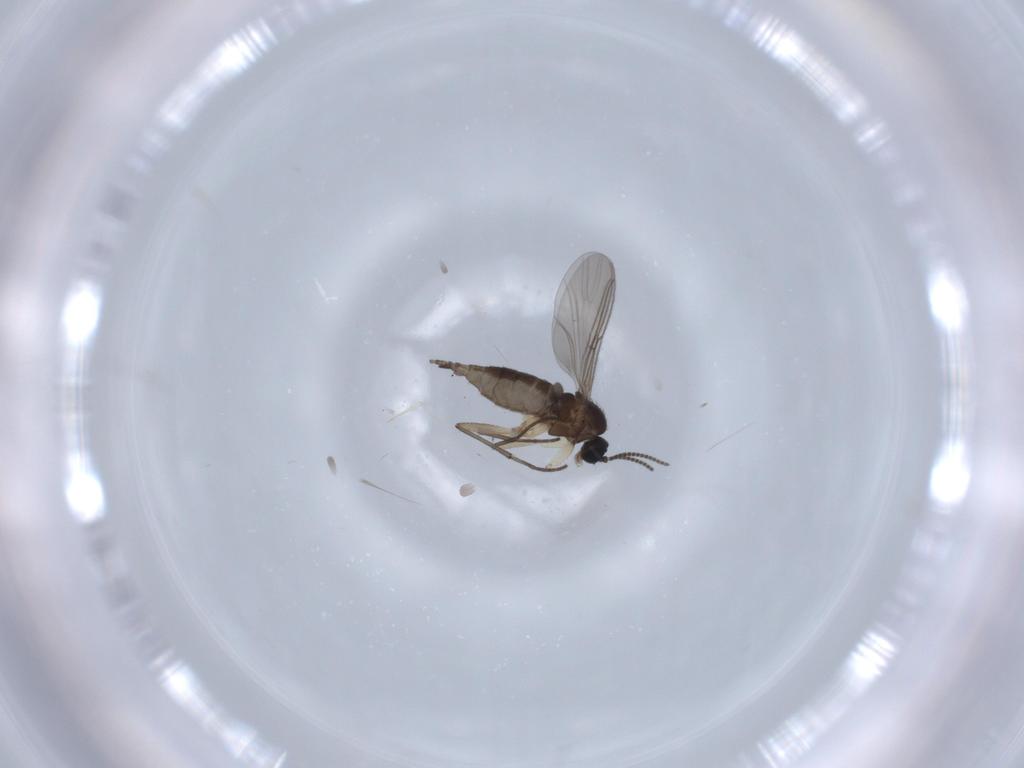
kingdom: Animalia
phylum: Arthropoda
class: Insecta
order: Diptera
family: Sciaridae
